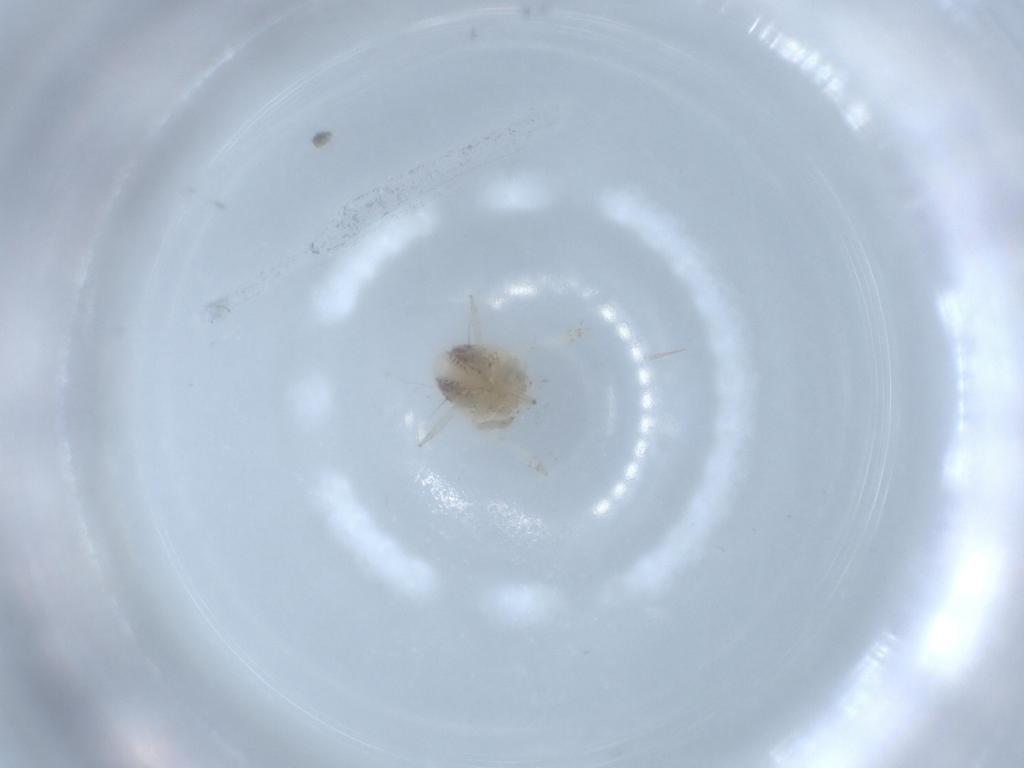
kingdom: Animalia
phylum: Arthropoda
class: Insecta
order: Hemiptera
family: Acanaloniidae
